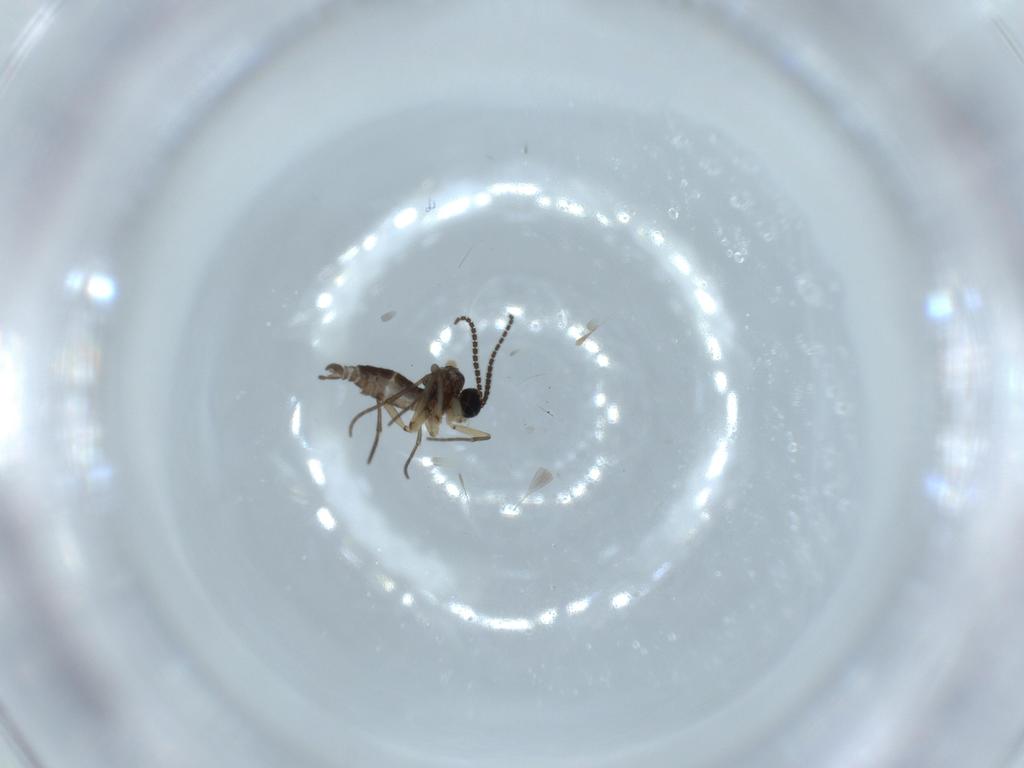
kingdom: Animalia
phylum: Arthropoda
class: Insecta
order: Diptera
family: Sciaridae
